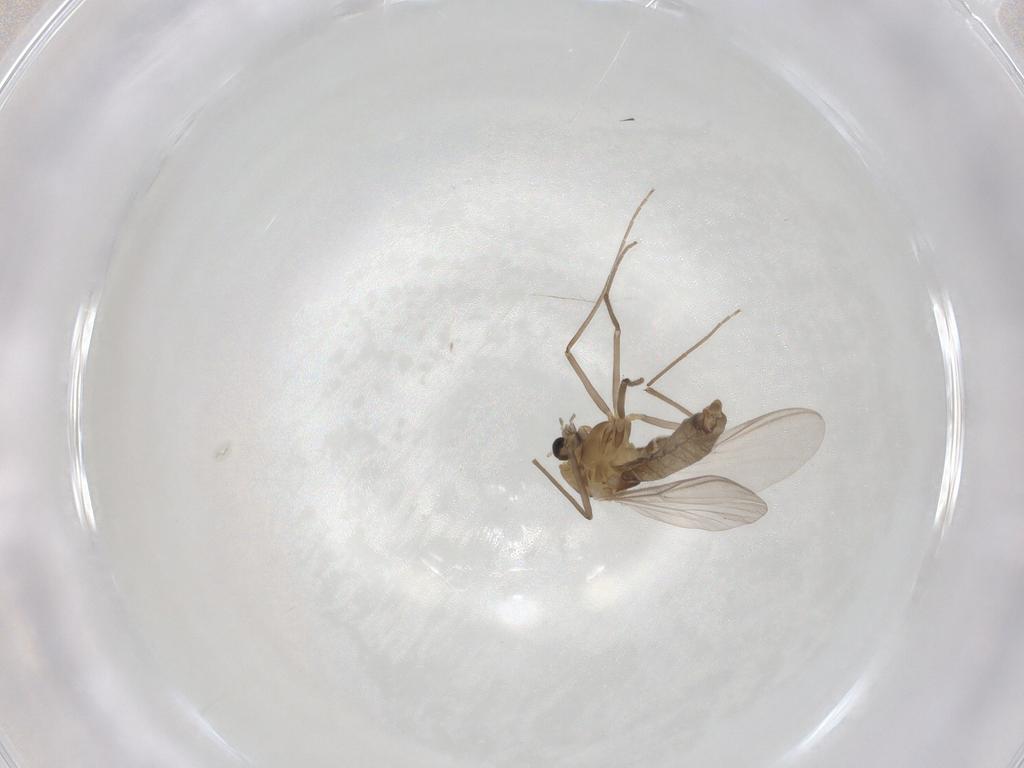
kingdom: Animalia
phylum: Arthropoda
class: Insecta
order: Diptera
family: Chironomidae
